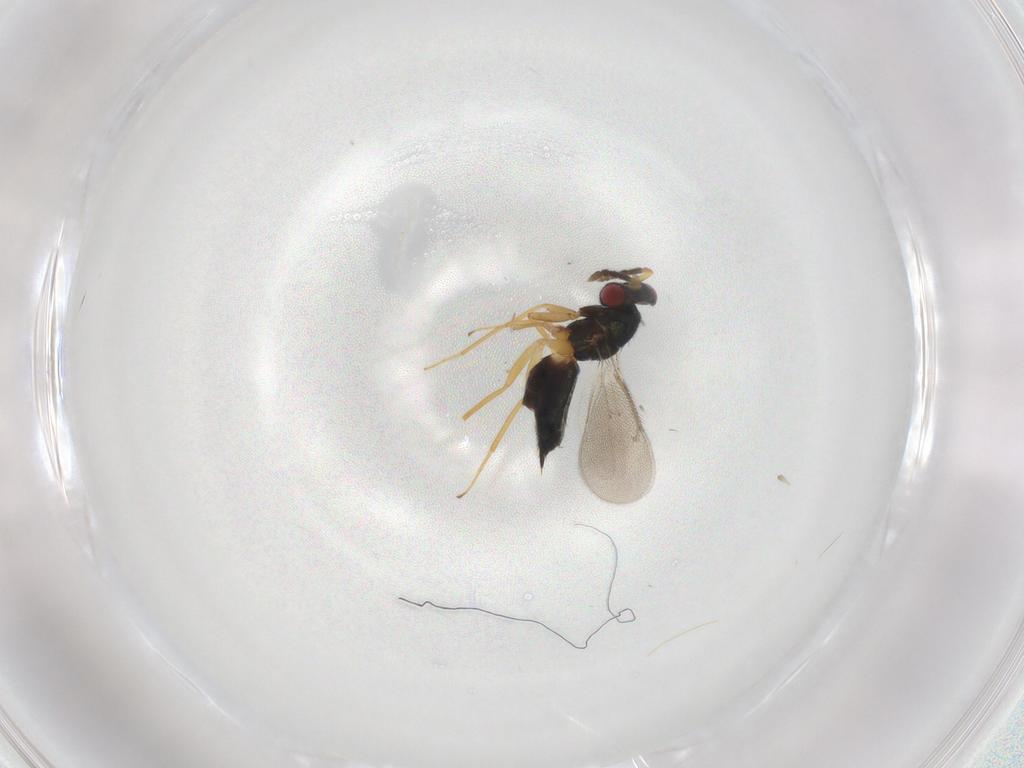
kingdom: Animalia
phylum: Arthropoda
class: Insecta
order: Hymenoptera
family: Eulophidae
